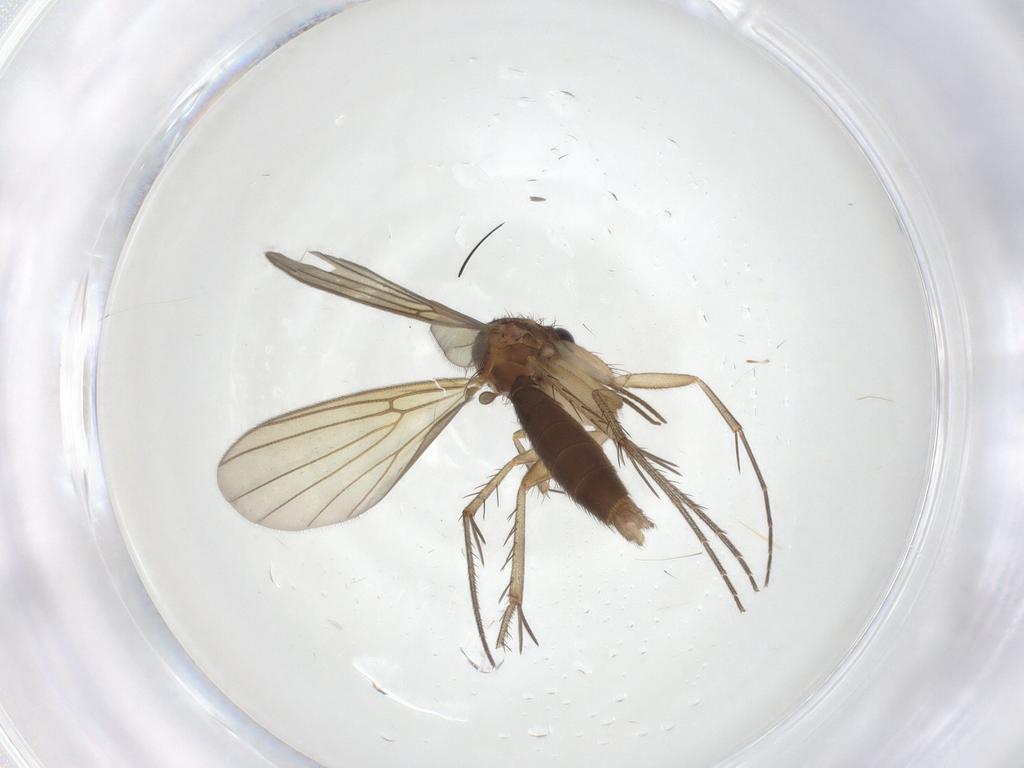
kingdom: Animalia
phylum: Arthropoda
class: Insecta
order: Diptera
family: Mycetophilidae
